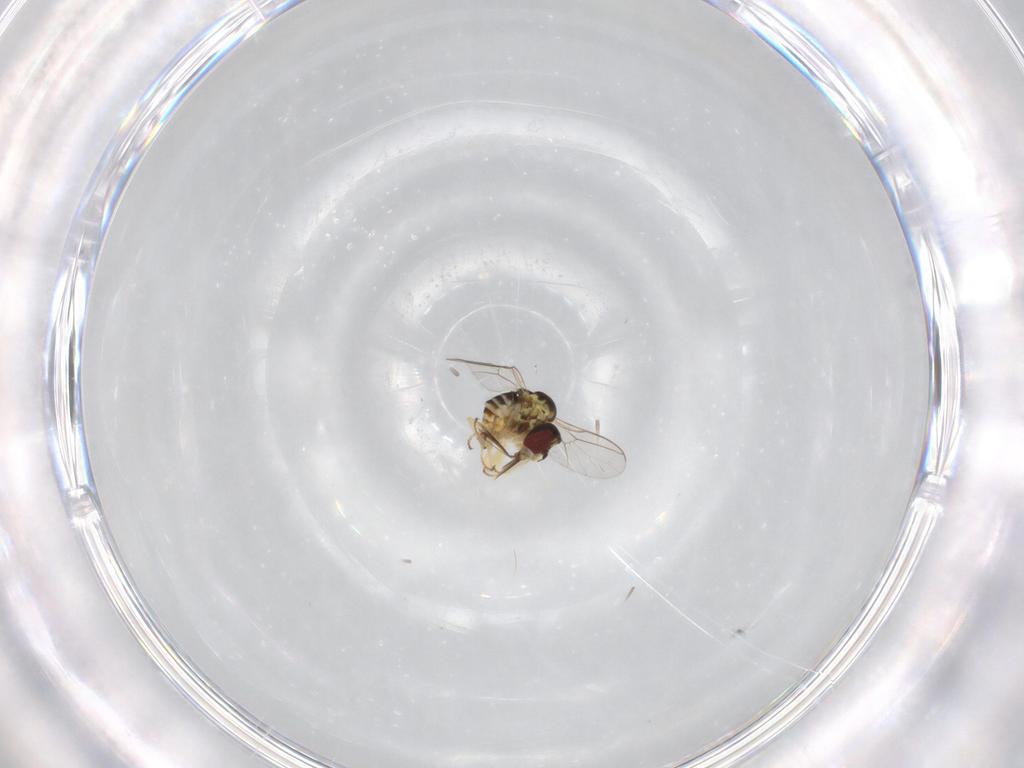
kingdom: Animalia
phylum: Arthropoda
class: Insecta
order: Diptera
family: Ceratopogonidae
